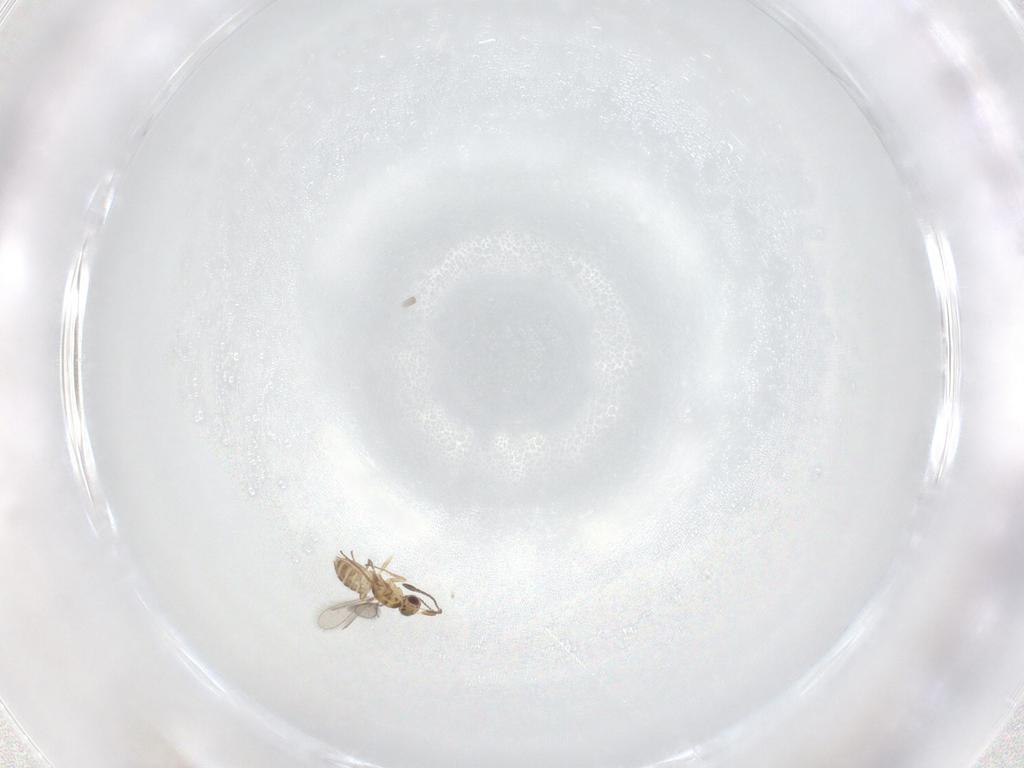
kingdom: Animalia
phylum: Arthropoda
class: Insecta
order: Hymenoptera
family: Mymaridae
